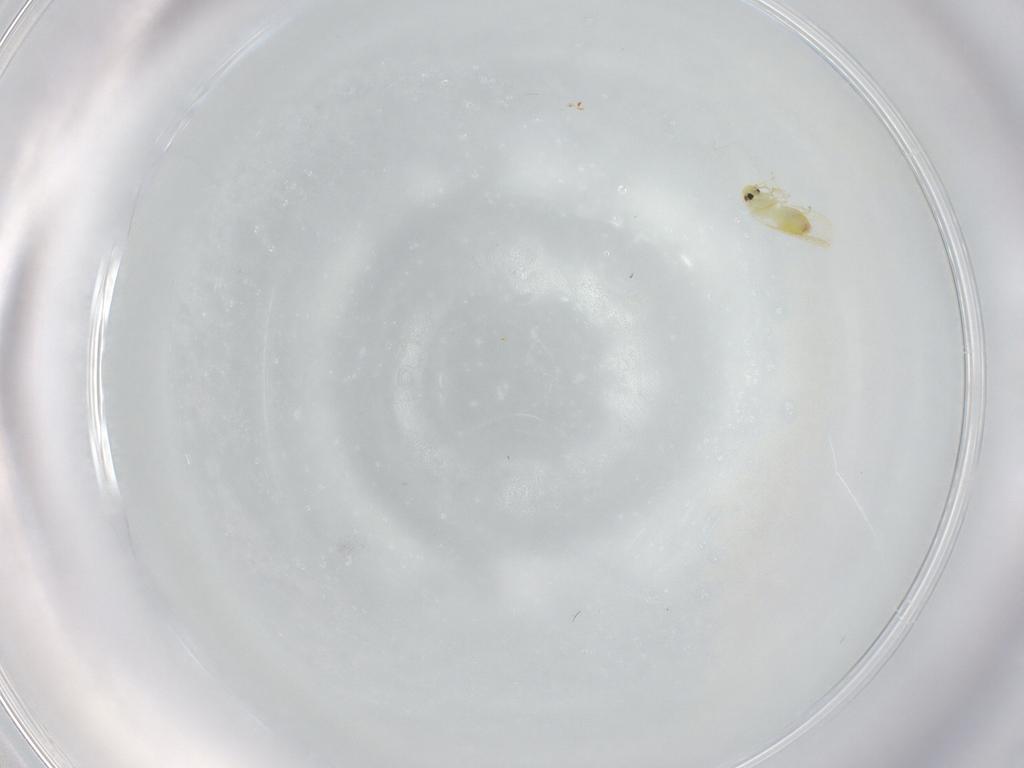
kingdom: Animalia
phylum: Arthropoda
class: Insecta
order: Hemiptera
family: Aleyrodidae
